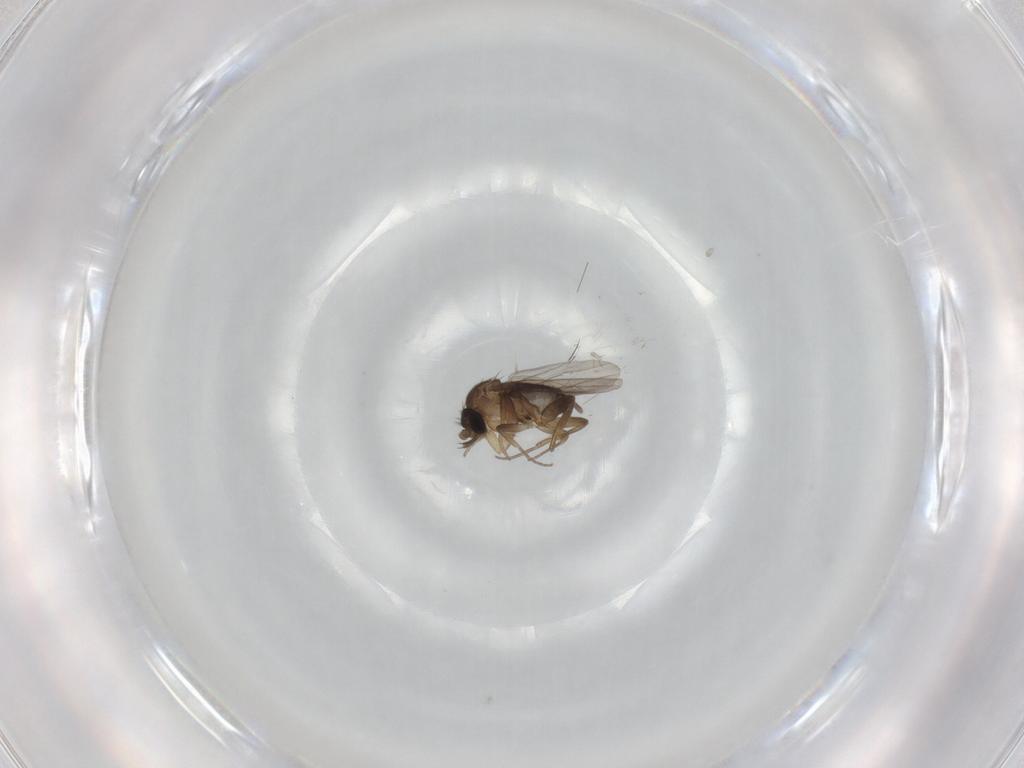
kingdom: Animalia
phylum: Arthropoda
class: Insecta
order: Diptera
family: Phoridae
